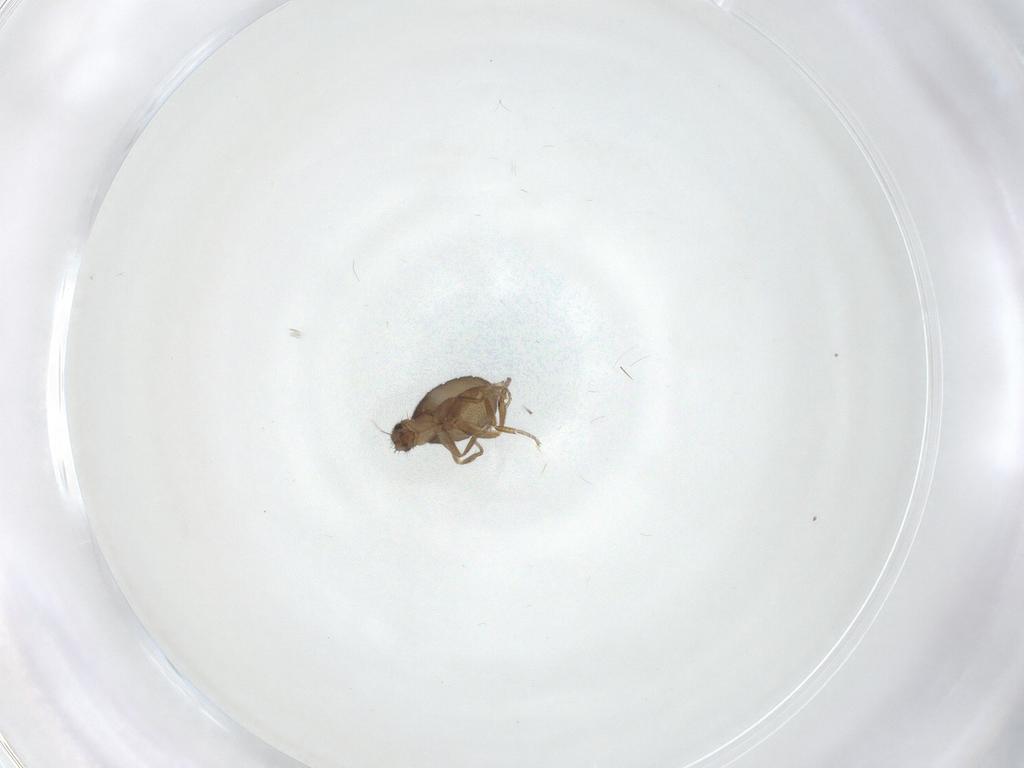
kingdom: Animalia
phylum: Arthropoda
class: Insecta
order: Diptera
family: Phoridae
